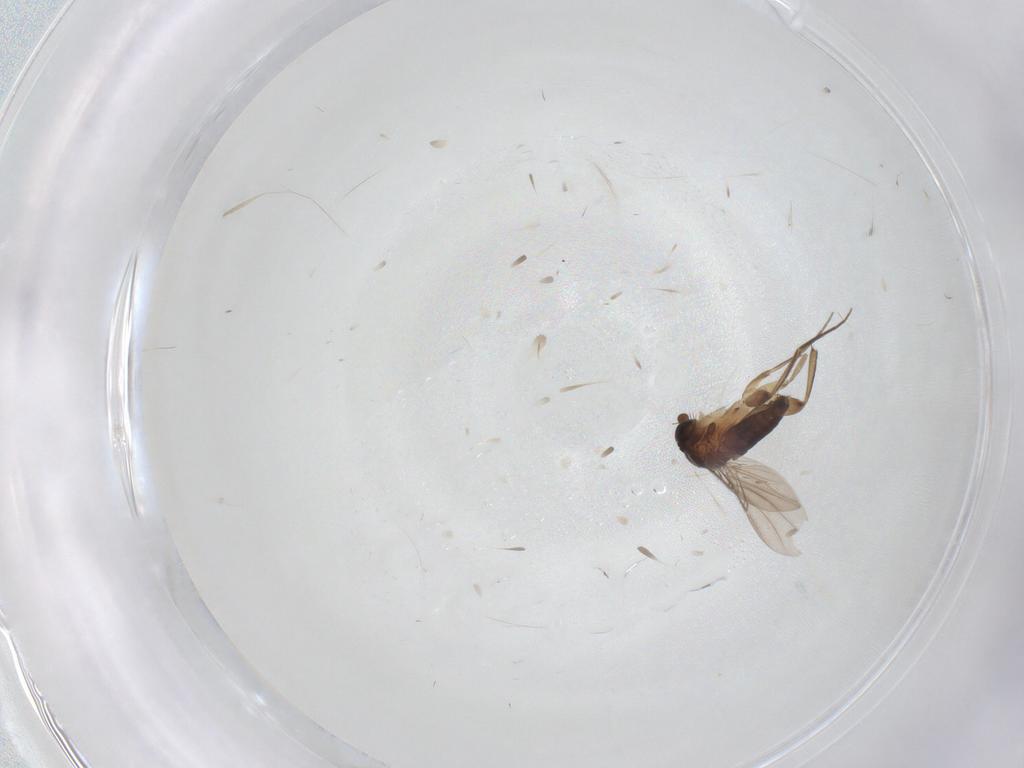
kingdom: Animalia
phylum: Arthropoda
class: Insecta
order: Diptera
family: Phoridae
